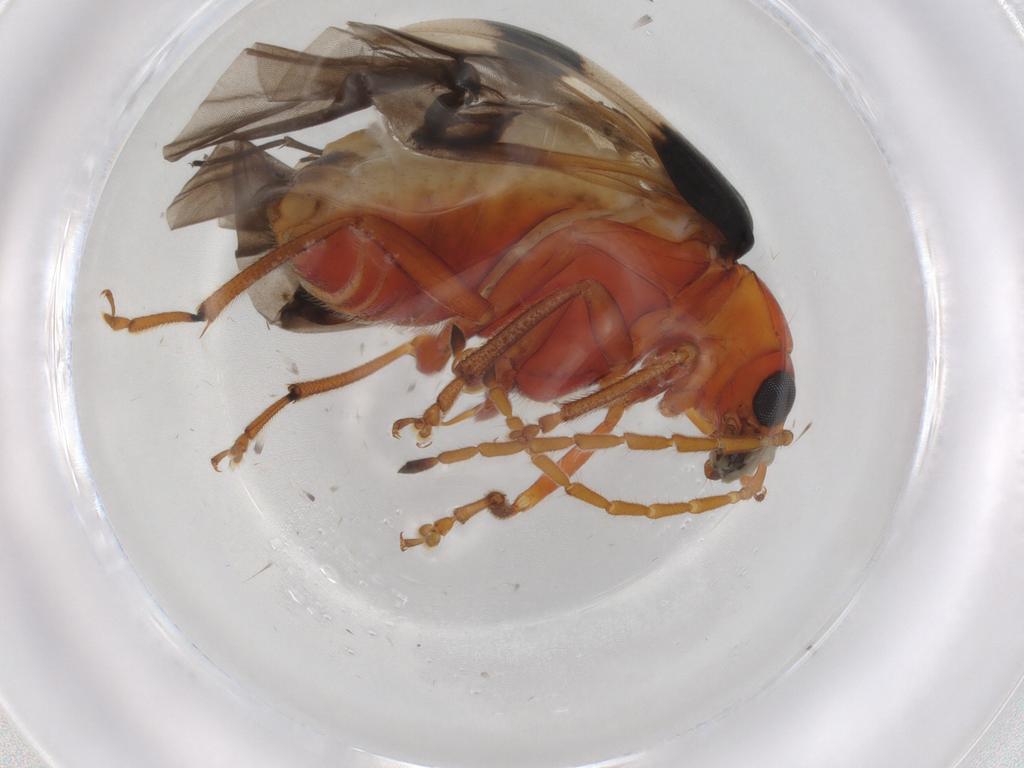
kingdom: Animalia
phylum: Arthropoda
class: Insecta
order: Coleoptera
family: Chrysomelidae
